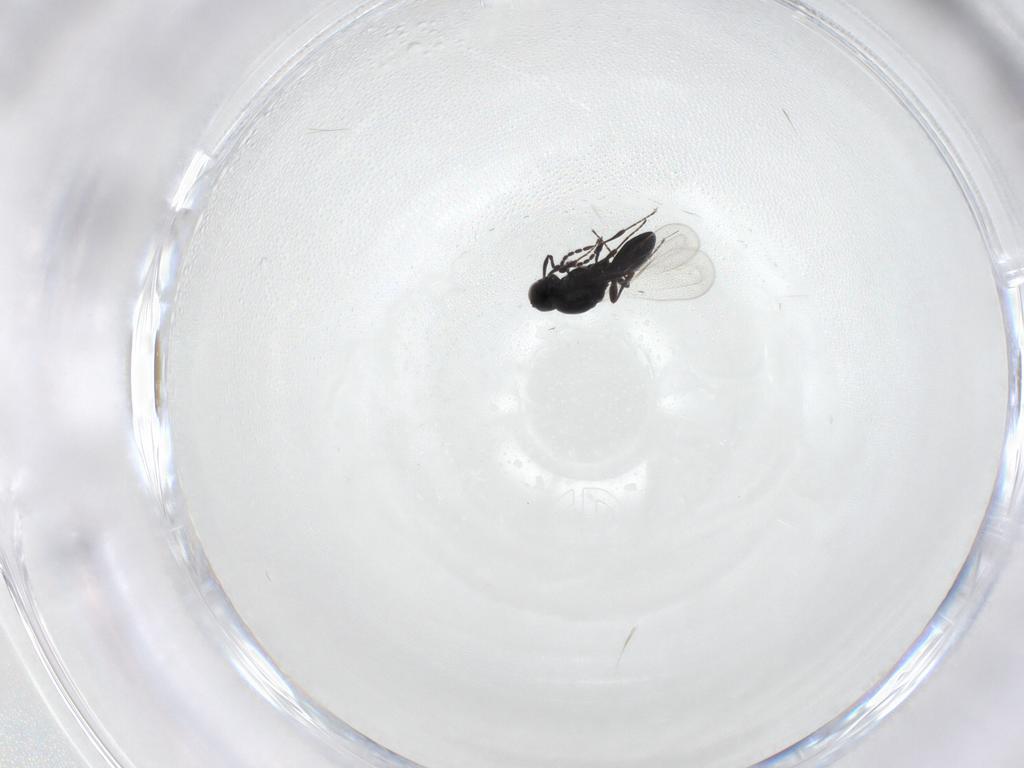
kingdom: Animalia
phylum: Arthropoda
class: Insecta
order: Hymenoptera
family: Platygastridae
